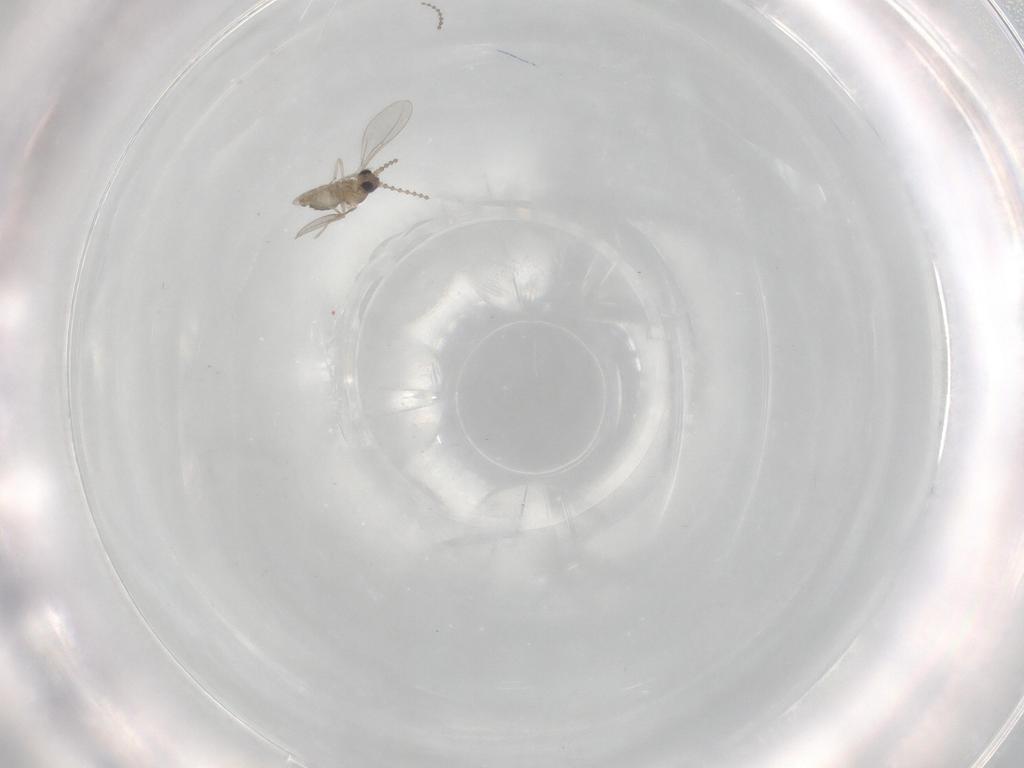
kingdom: Animalia
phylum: Arthropoda
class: Insecta
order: Diptera
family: Cecidomyiidae
